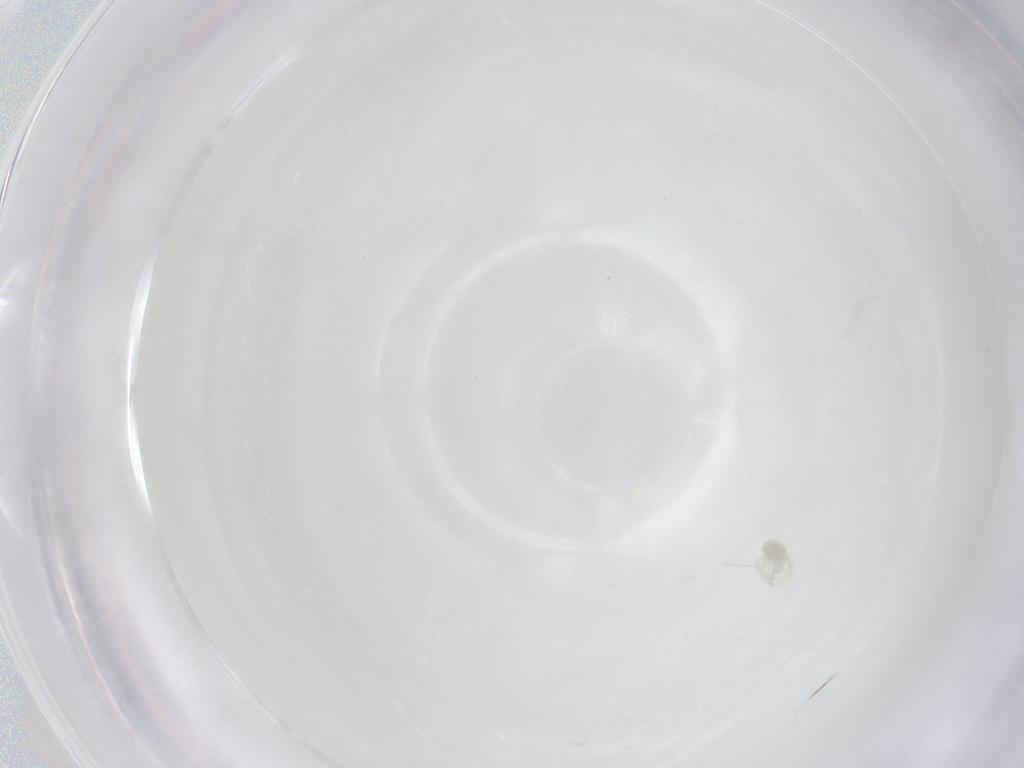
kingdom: Animalia
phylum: Arthropoda
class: Arachnida
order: Trombidiformes
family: Anystidae
